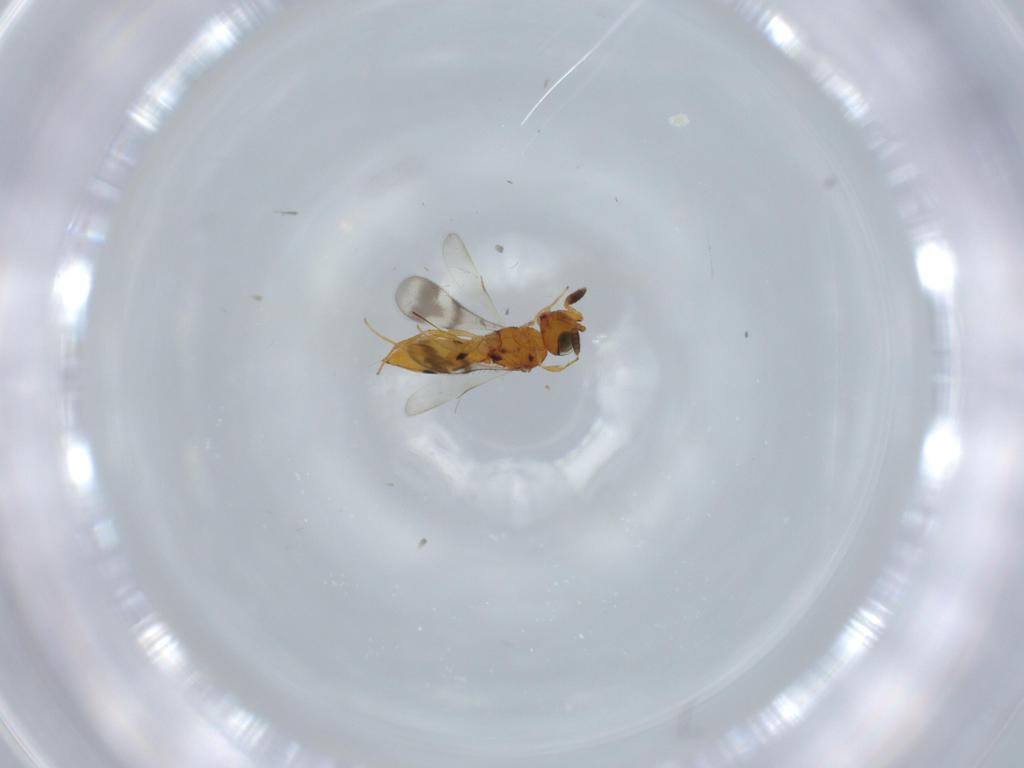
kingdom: Animalia
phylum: Arthropoda
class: Insecta
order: Hymenoptera
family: Scelionidae
